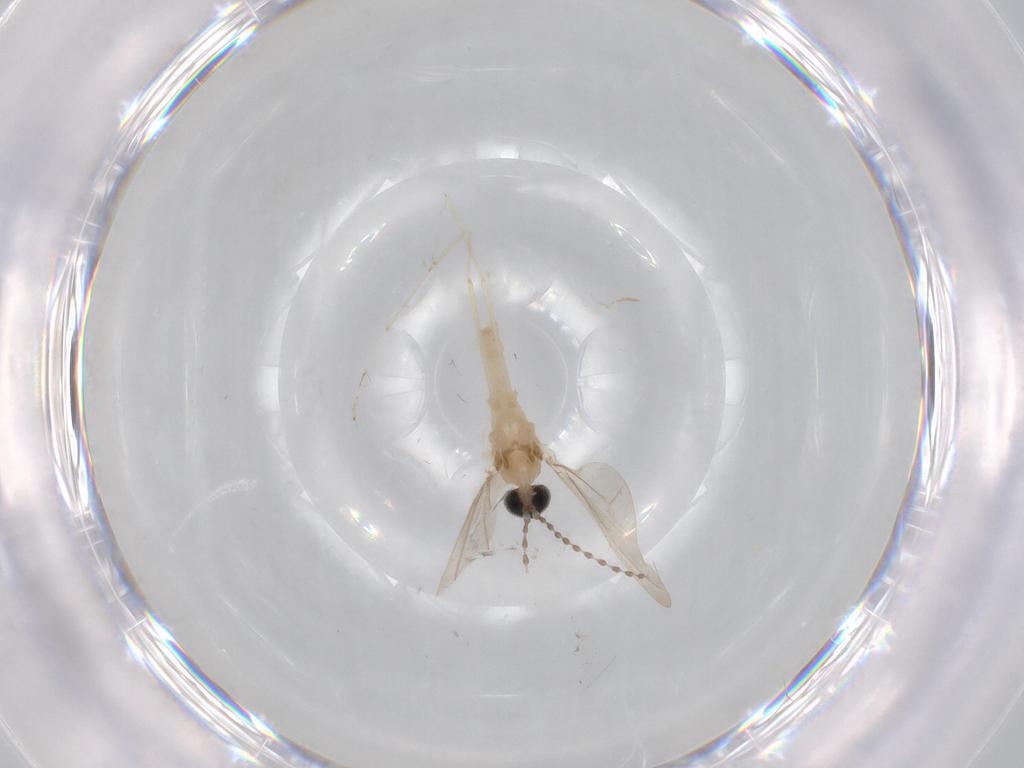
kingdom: Animalia
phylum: Arthropoda
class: Insecta
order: Diptera
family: Cecidomyiidae
